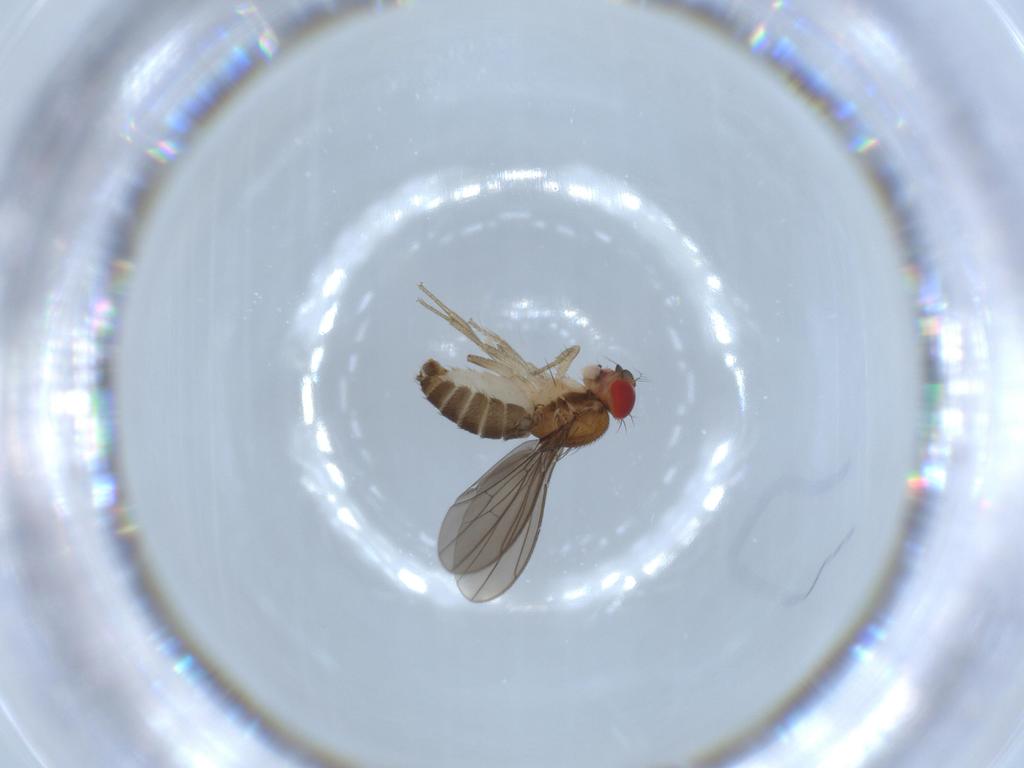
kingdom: Animalia
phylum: Arthropoda
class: Insecta
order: Diptera
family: Drosophilidae
